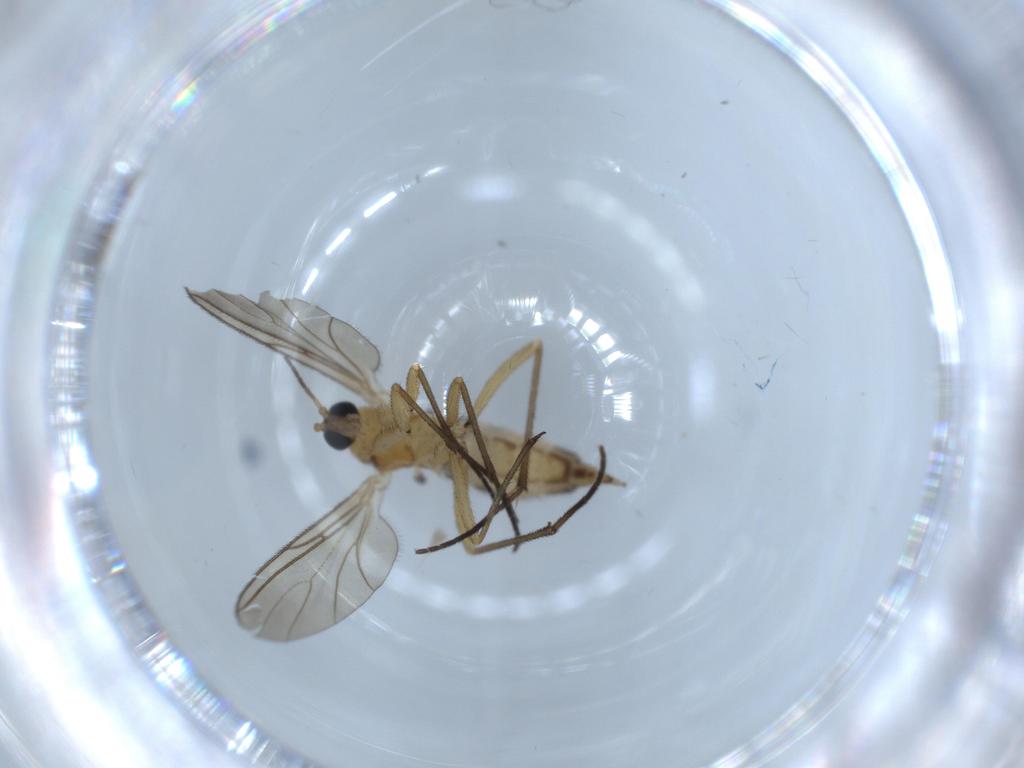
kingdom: Animalia
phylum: Arthropoda
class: Insecta
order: Diptera
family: Sciaridae
